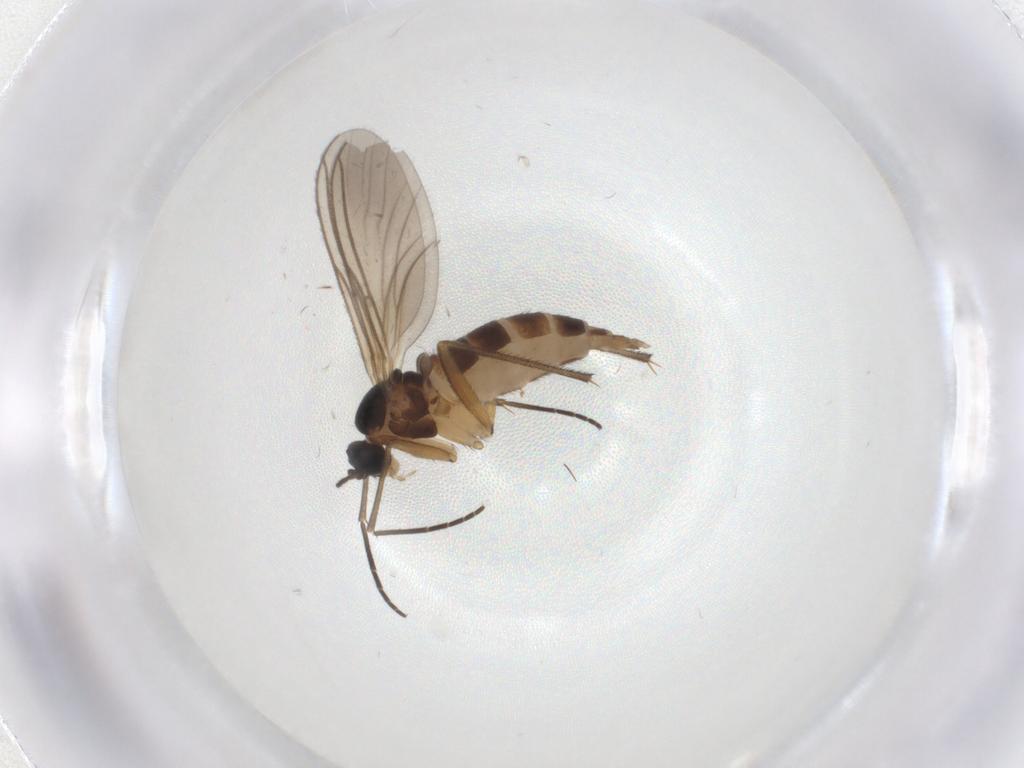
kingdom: Animalia
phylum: Arthropoda
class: Insecta
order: Diptera
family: Sciaridae
